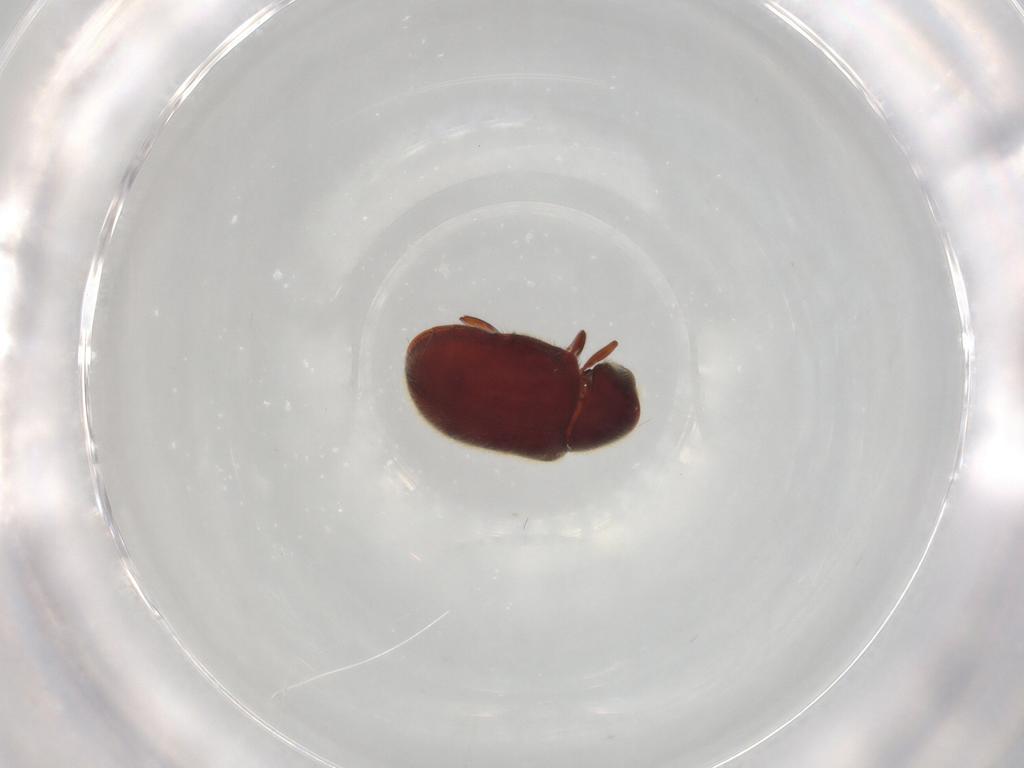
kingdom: Animalia
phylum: Arthropoda
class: Insecta
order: Coleoptera
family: Ptinidae
